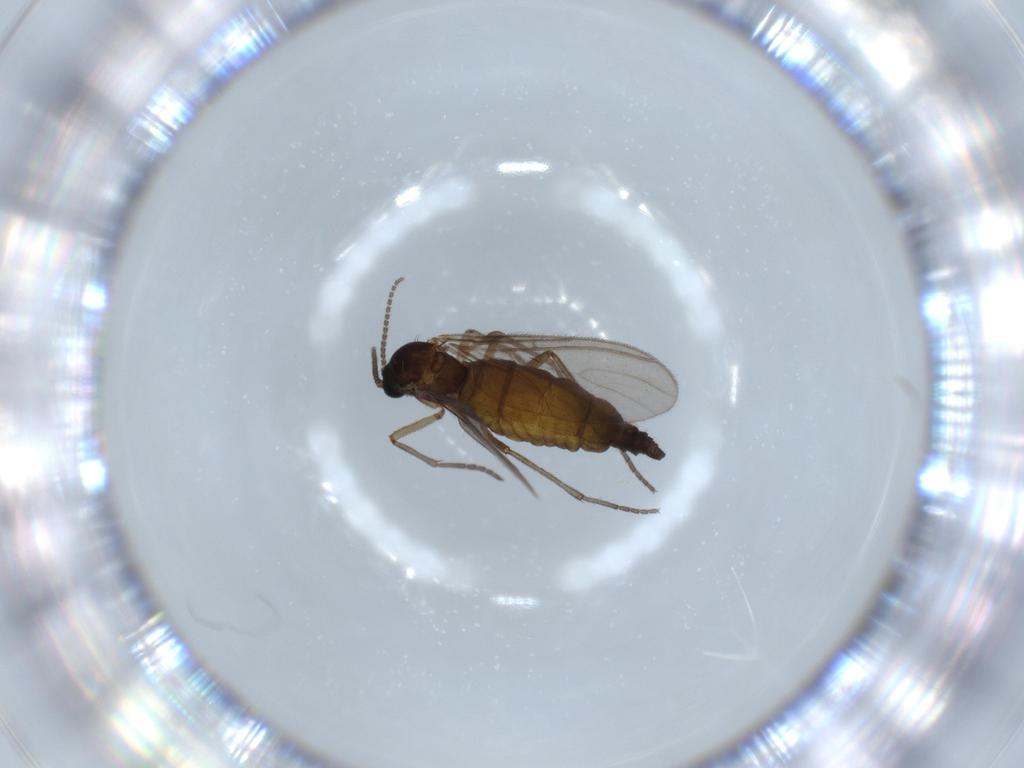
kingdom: Animalia
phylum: Arthropoda
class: Insecta
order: Diptera
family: Sciaridae
